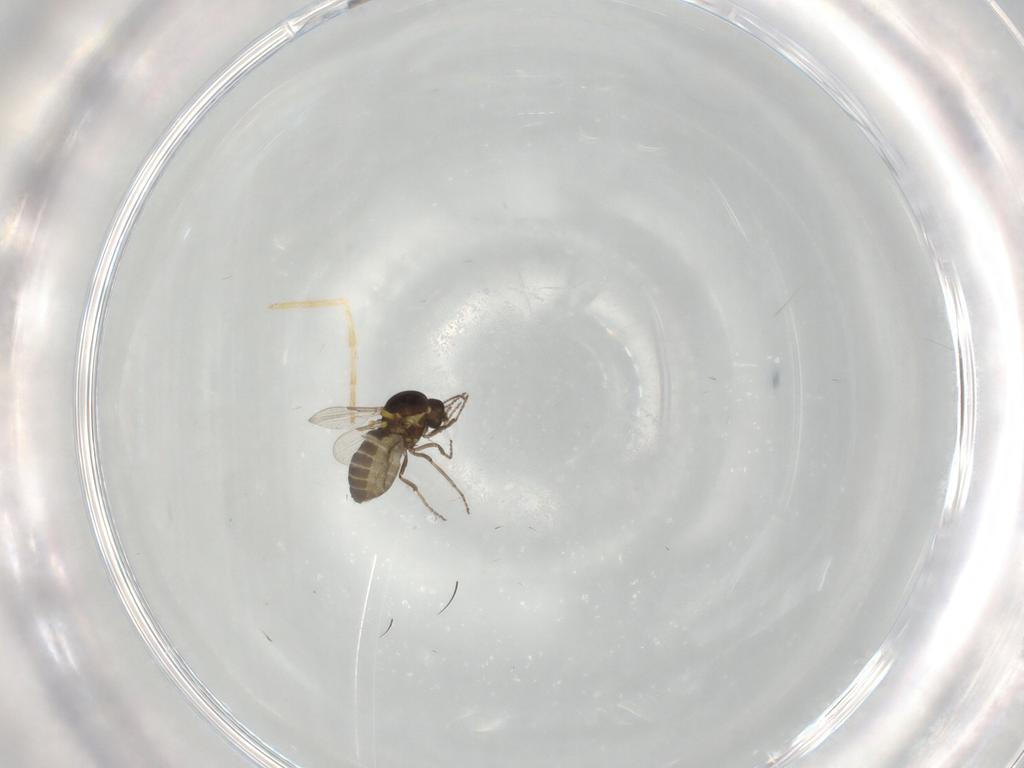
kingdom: Animalia
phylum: Arthropoda
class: Insecta
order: Diptera
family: Ceratopogonidae
